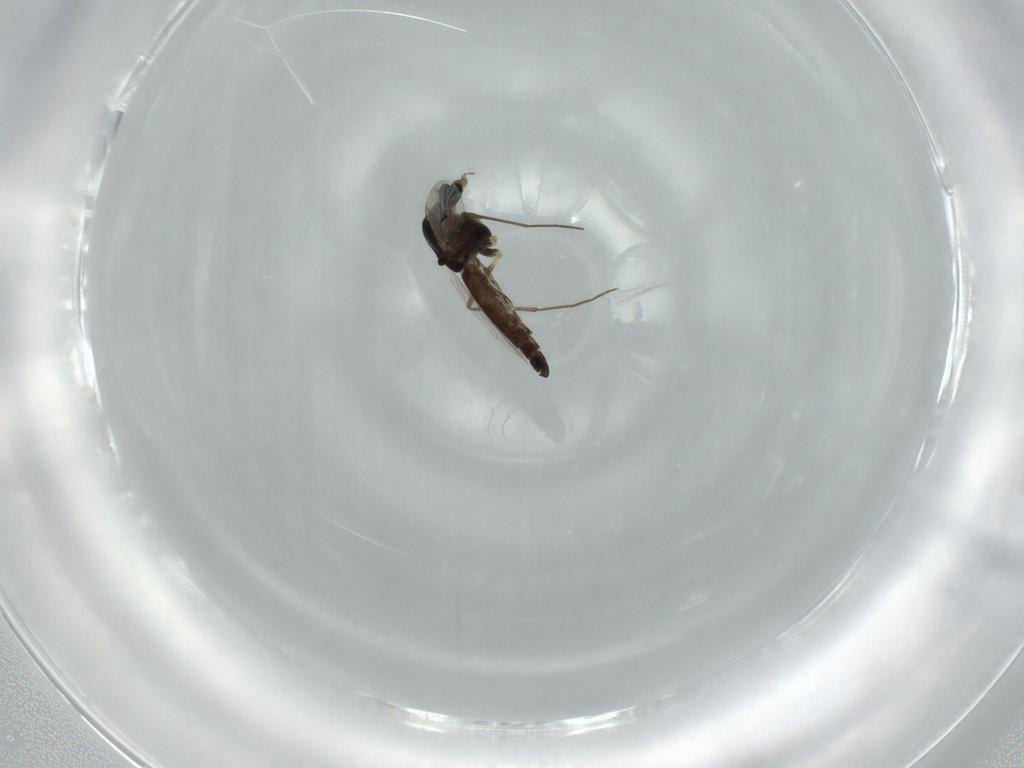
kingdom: Animalia
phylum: Arthropoda
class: Insecta
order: Diptera
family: Chironomidae
